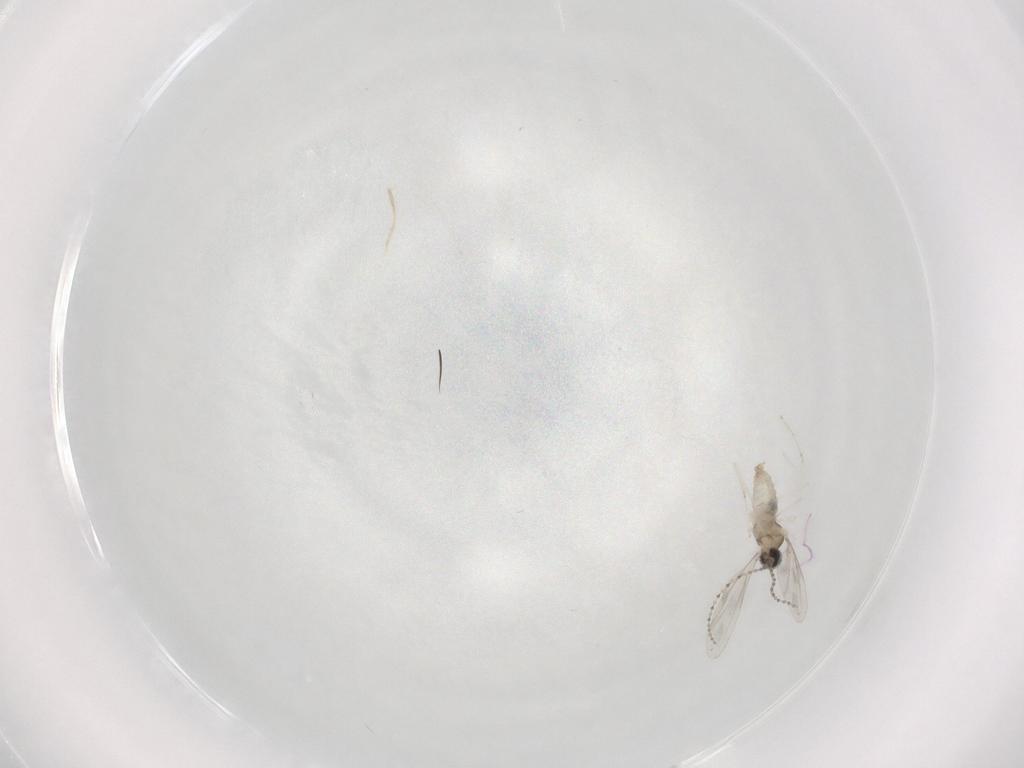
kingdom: Animalia
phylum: Arthropoda
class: Insecta
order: Diptera
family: Cecidomyiidae
